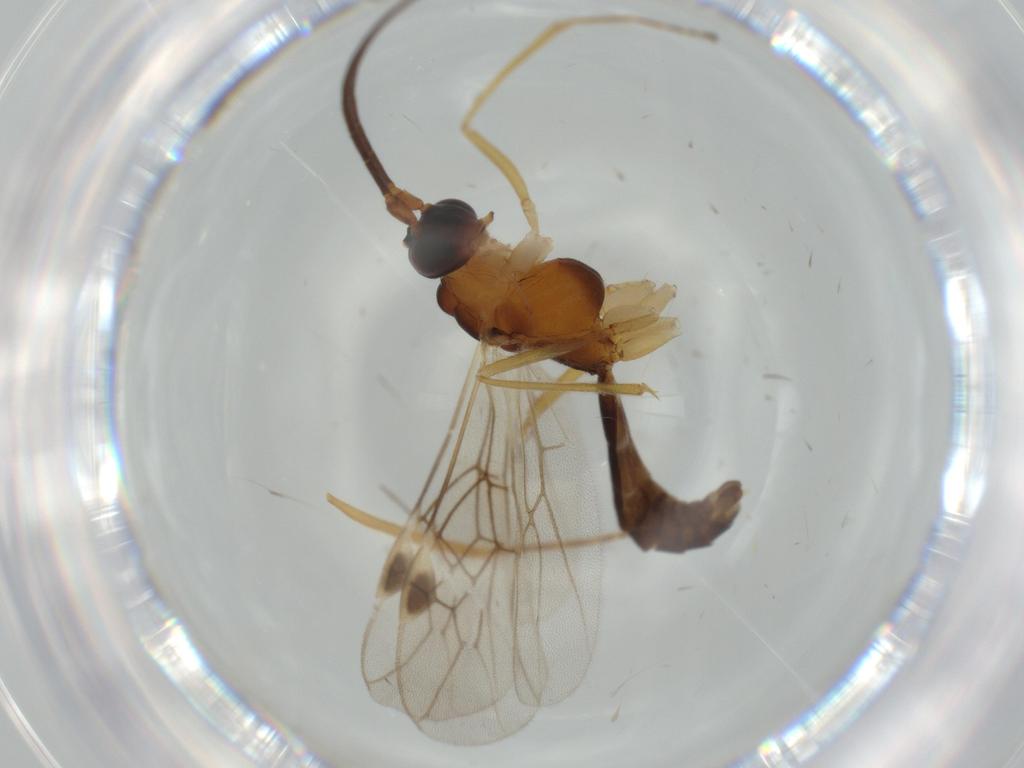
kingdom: Animalia
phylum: Arthropoda
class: Insecta
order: Hymenoptera
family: Braconidae
